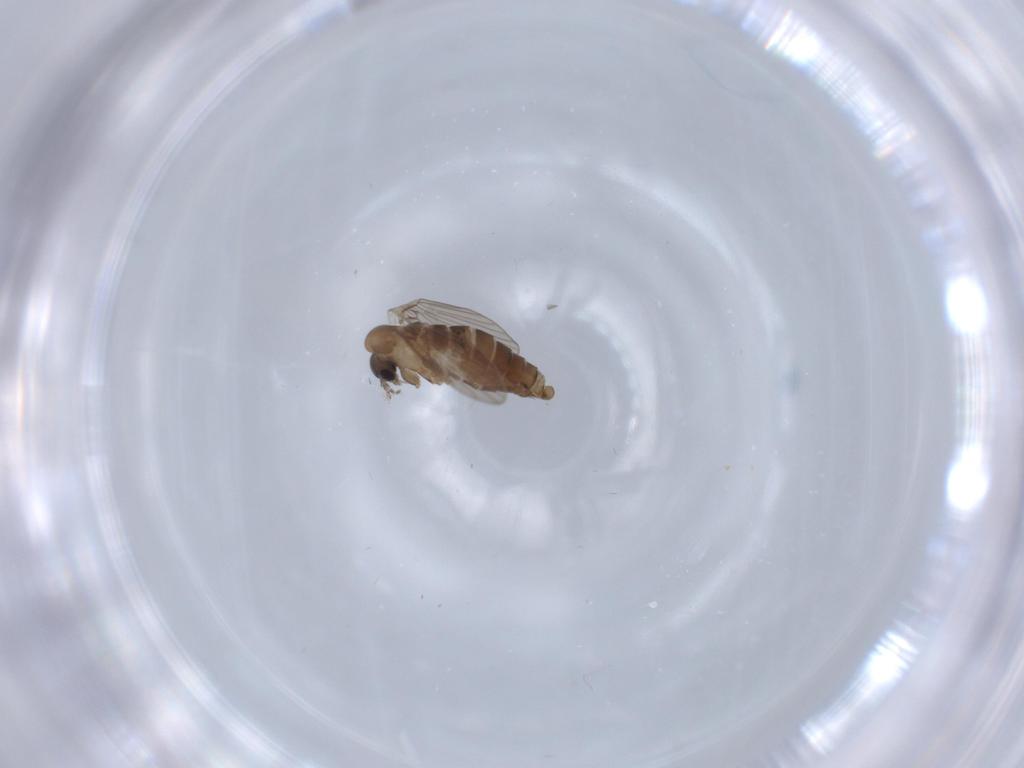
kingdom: Animalia
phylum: Arthropoda
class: Insecta
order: Diptera
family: Psychodidae
